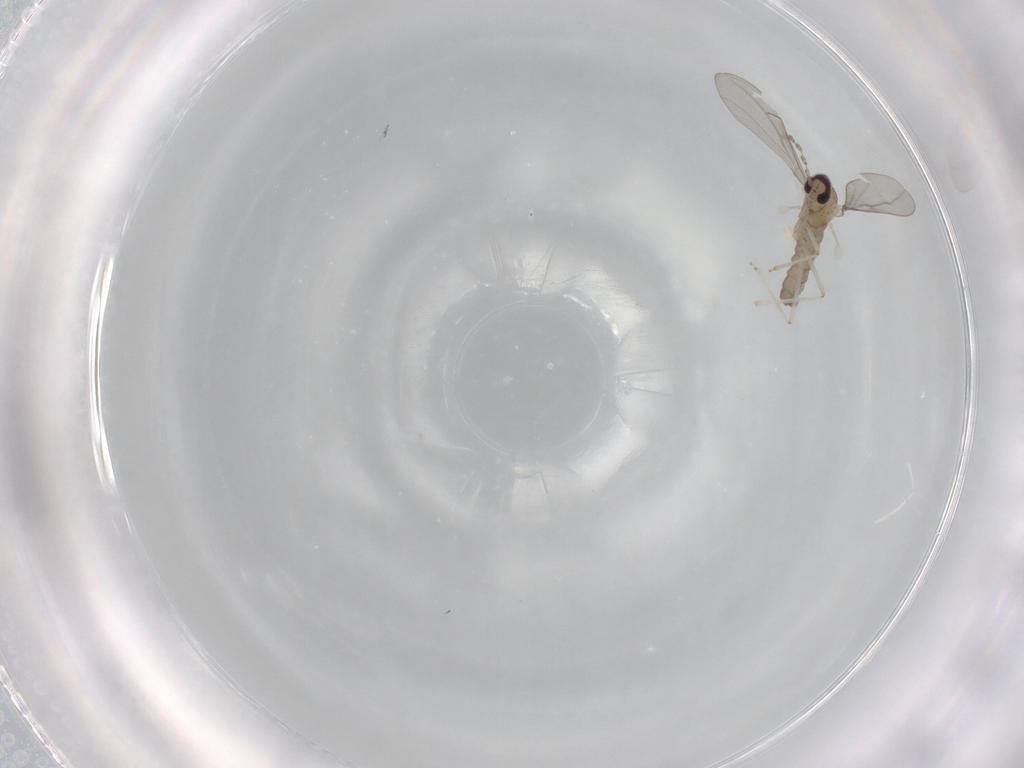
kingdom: Animalia
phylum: Arthropoda
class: Insecta
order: Diptera
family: Cecidomyiidae
